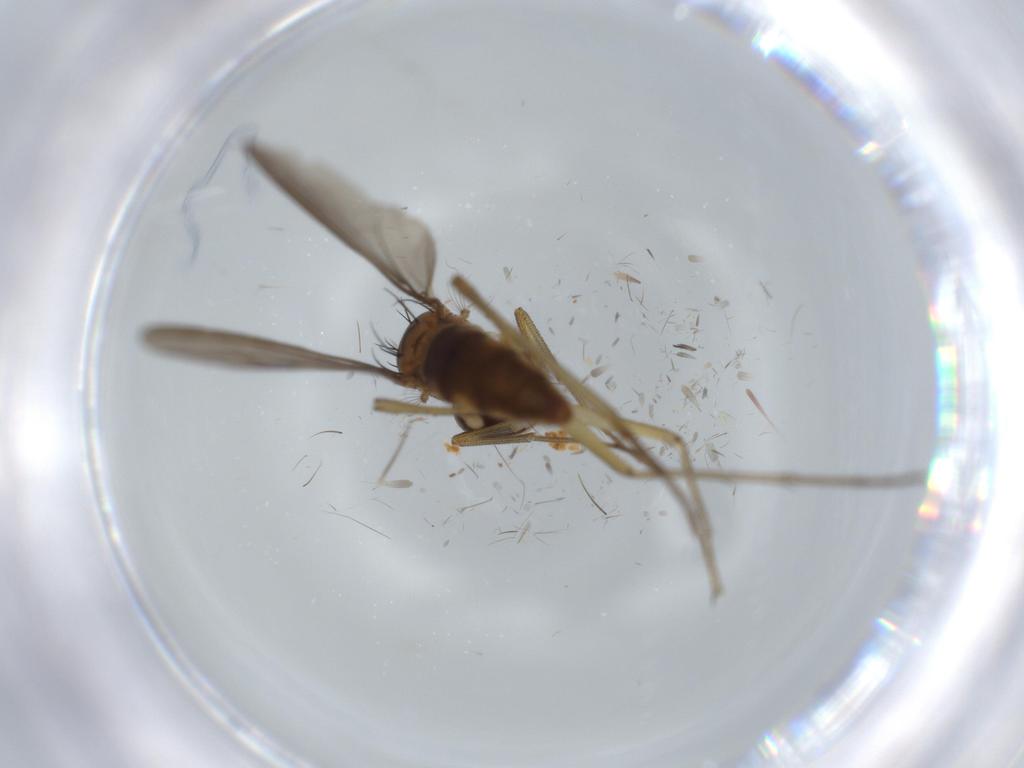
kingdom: Animalia
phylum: Arthropoda
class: Insecta
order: Diptera
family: Dolichopodidae
